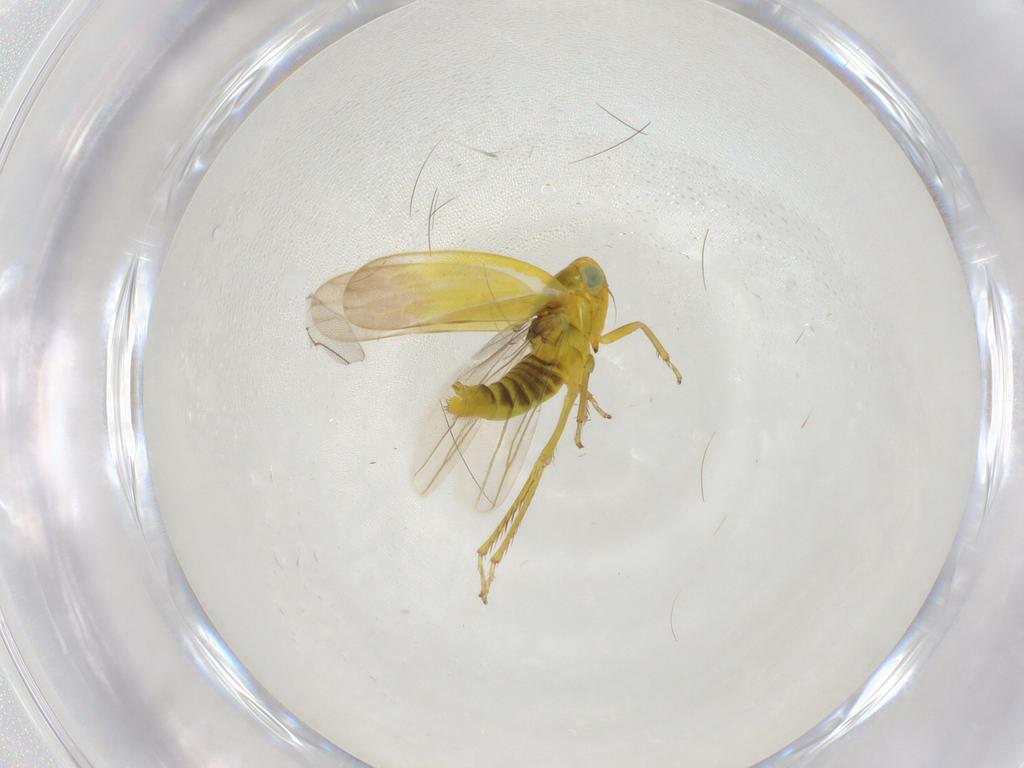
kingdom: Animalia
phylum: Arthropoda
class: Insecta
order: Hemiptera
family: Cicadellidae
